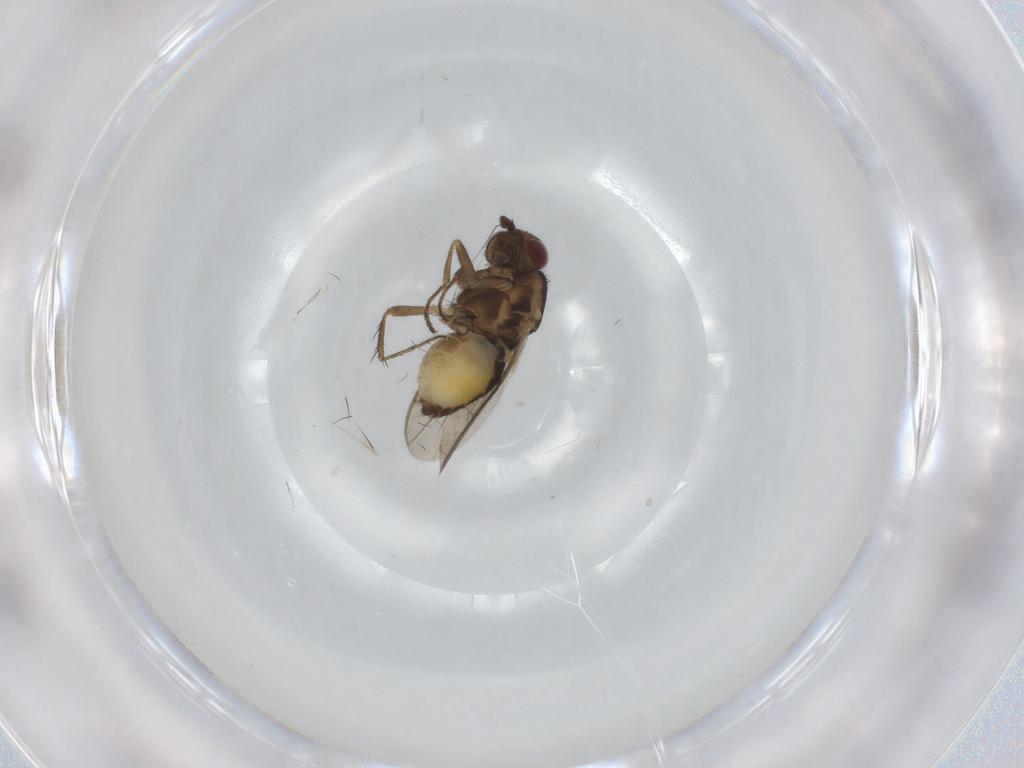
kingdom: Animalia
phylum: Arthropoda
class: Insecta
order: Diptera
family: Sphaeroceridae
